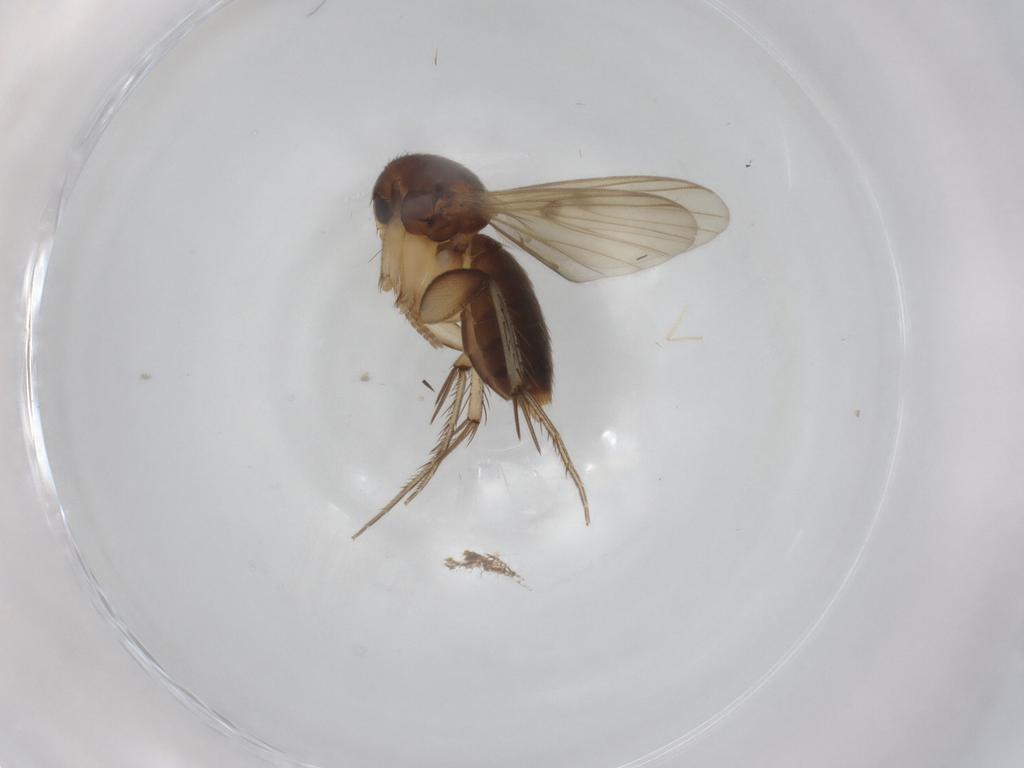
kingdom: Animalia
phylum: Arthropoda
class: Insecta
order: Diptera
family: Mycetophilidae
